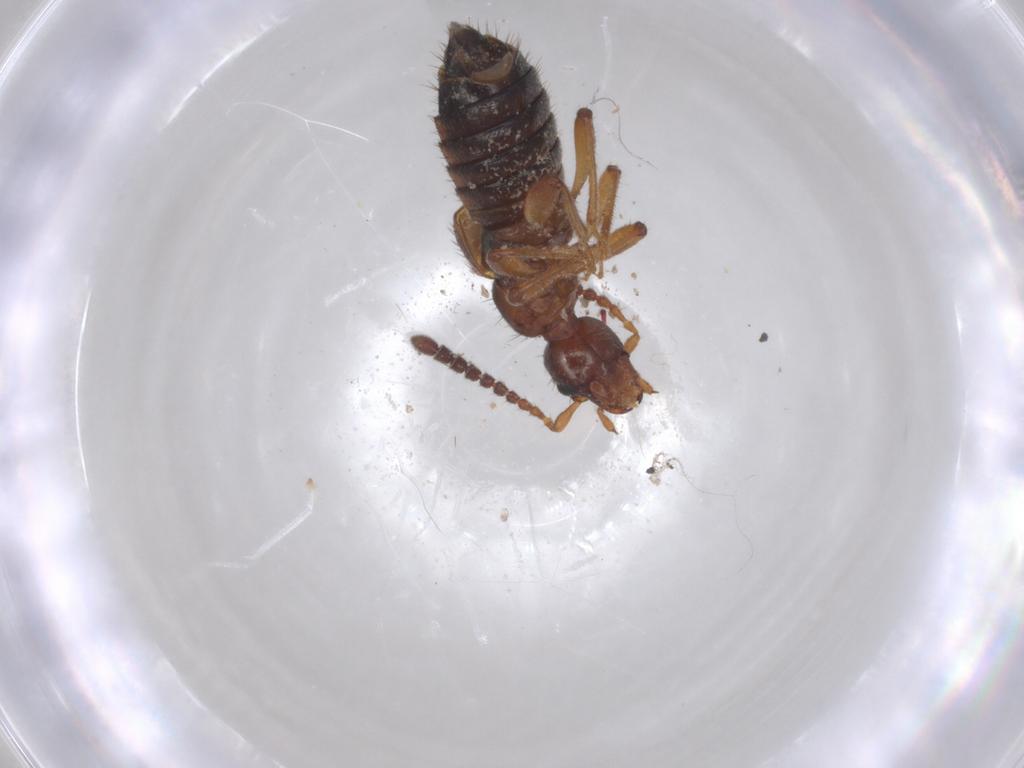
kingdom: Animalia
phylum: Arthropoda
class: Insecta
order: Coleoptera
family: Staphylinidae
